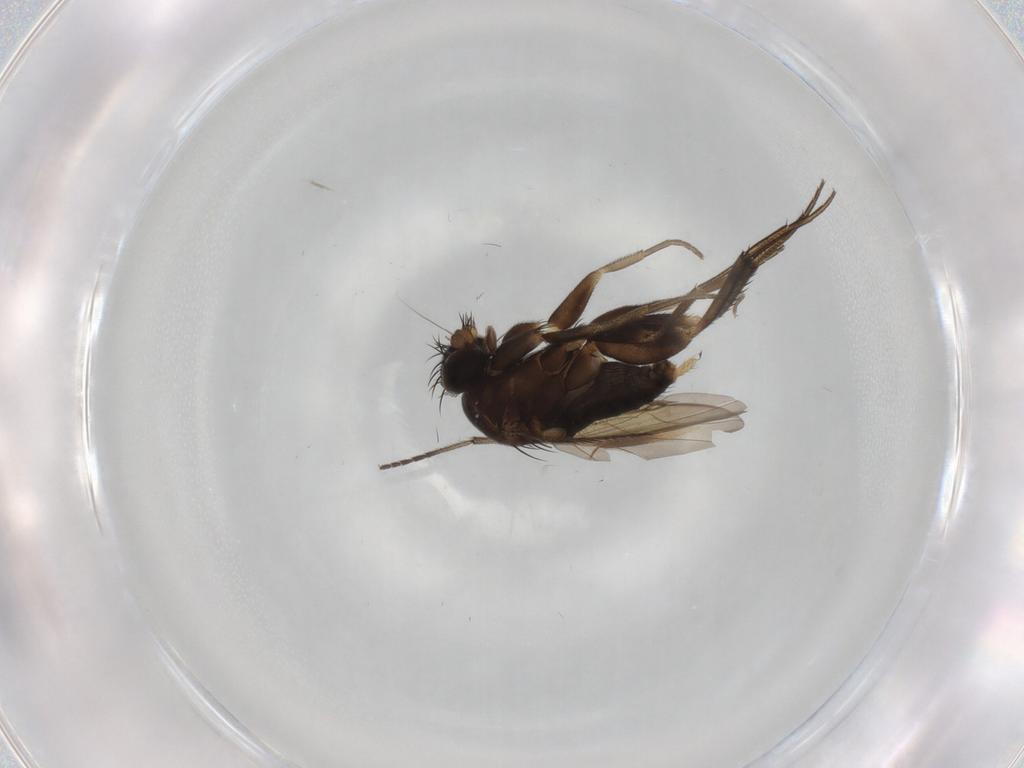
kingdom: Animalia
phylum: Arthropoda
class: Insecta
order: Diptera
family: Phoridae
